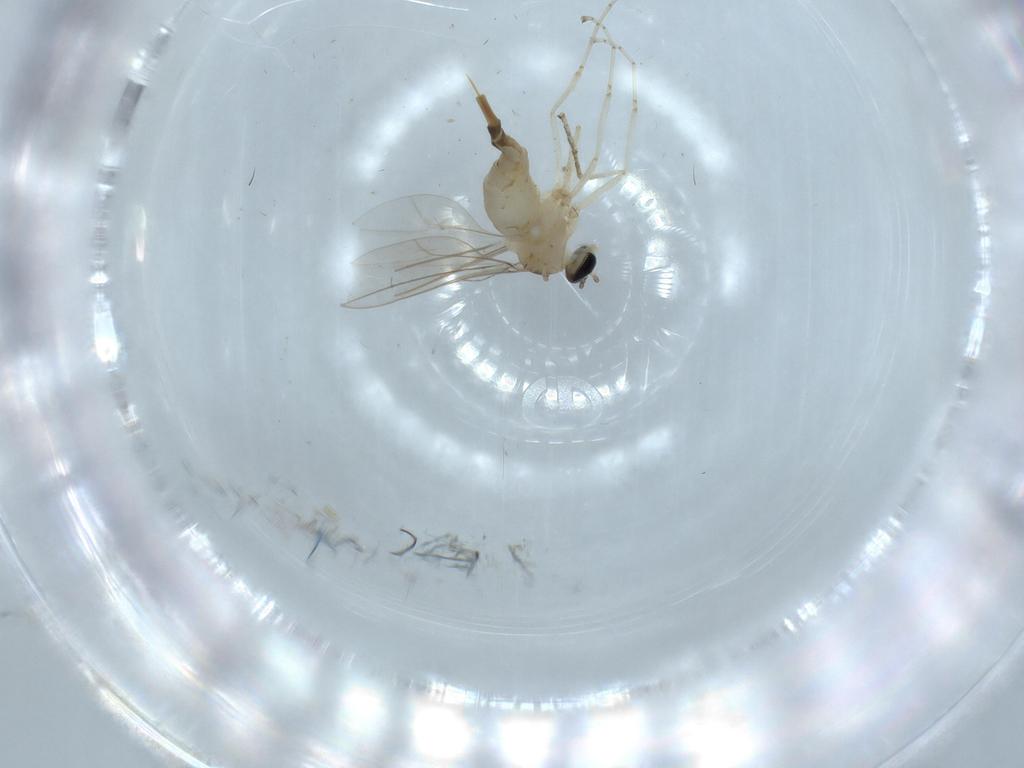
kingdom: Animalia
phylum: Arthropoda
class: Insecta
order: Diptera
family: Cecidomyiidae
